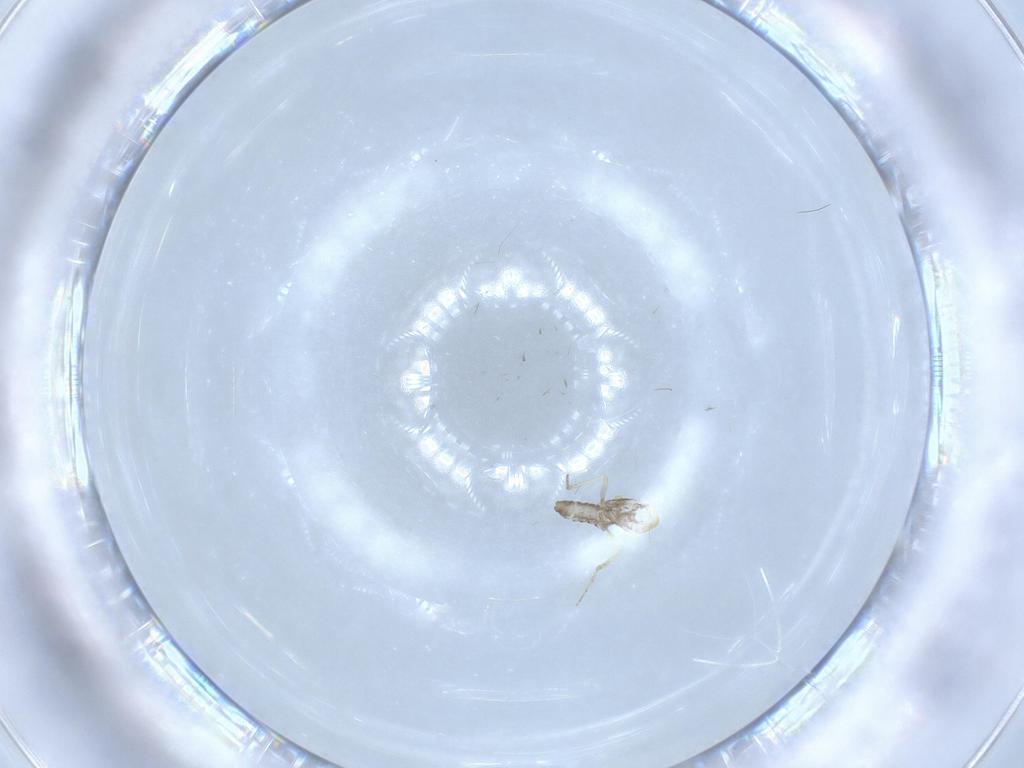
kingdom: Animalia
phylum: Arthropoda
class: Insecta
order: Diptera
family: Ceratopogonidae
